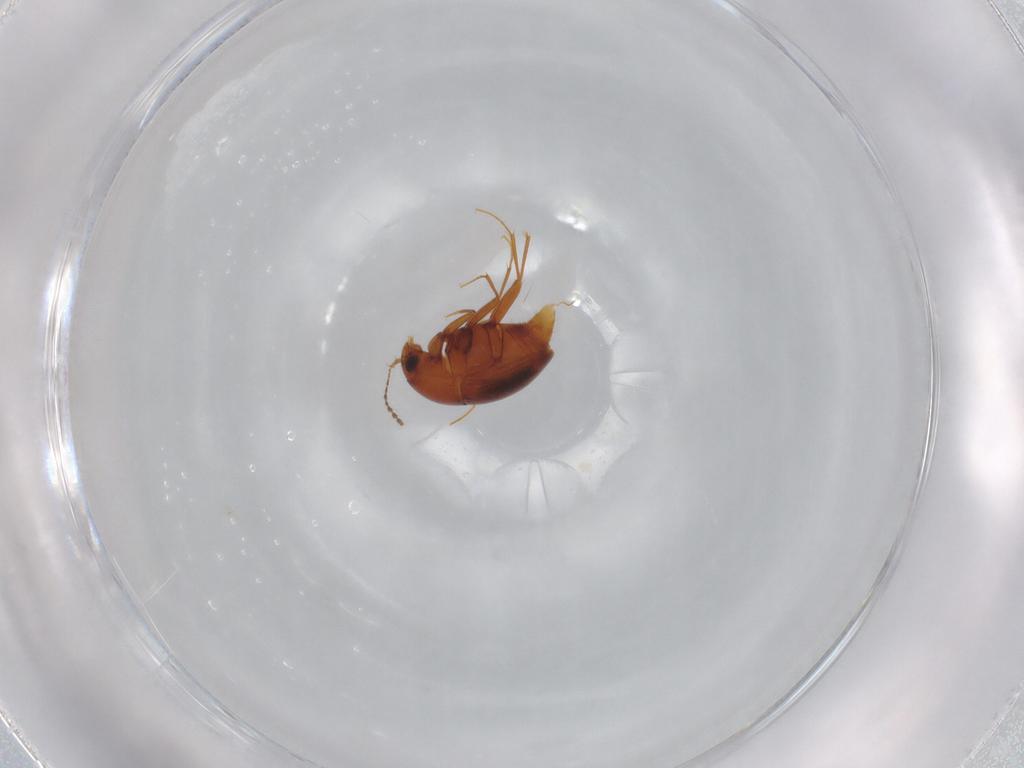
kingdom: Animalia
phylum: Arthropoda
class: Insecta
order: Coleoptera
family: Staphylinidae
